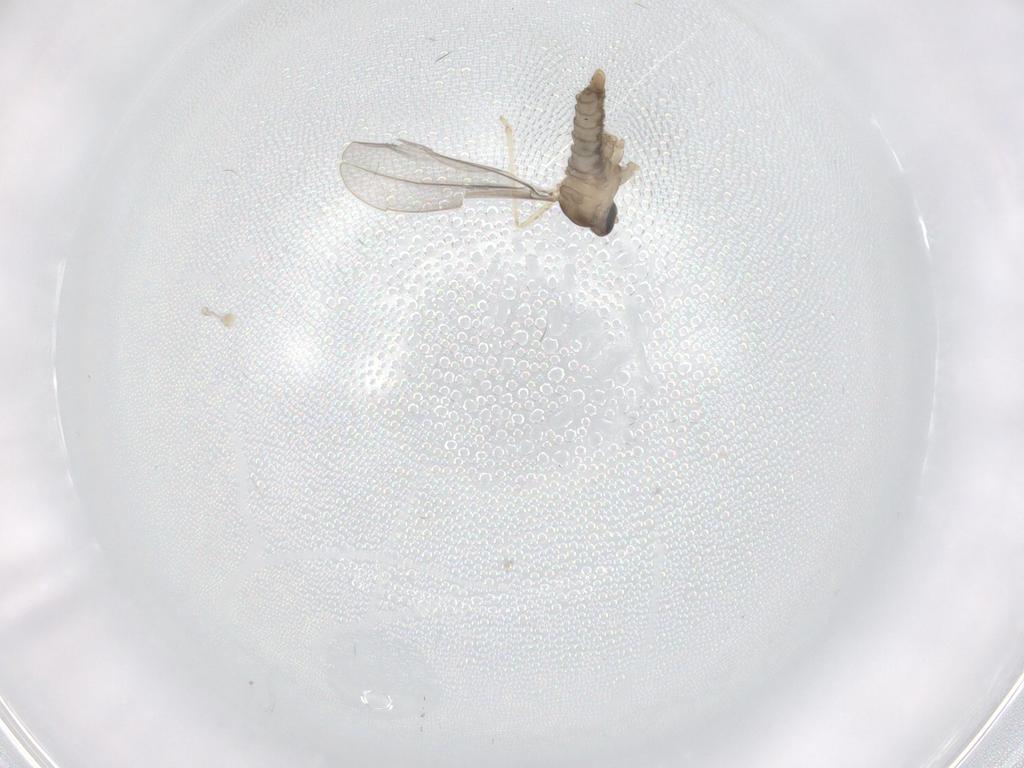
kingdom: Animalia
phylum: Arthropoda
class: Insecta
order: Diptera
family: Cecidomyiidae
